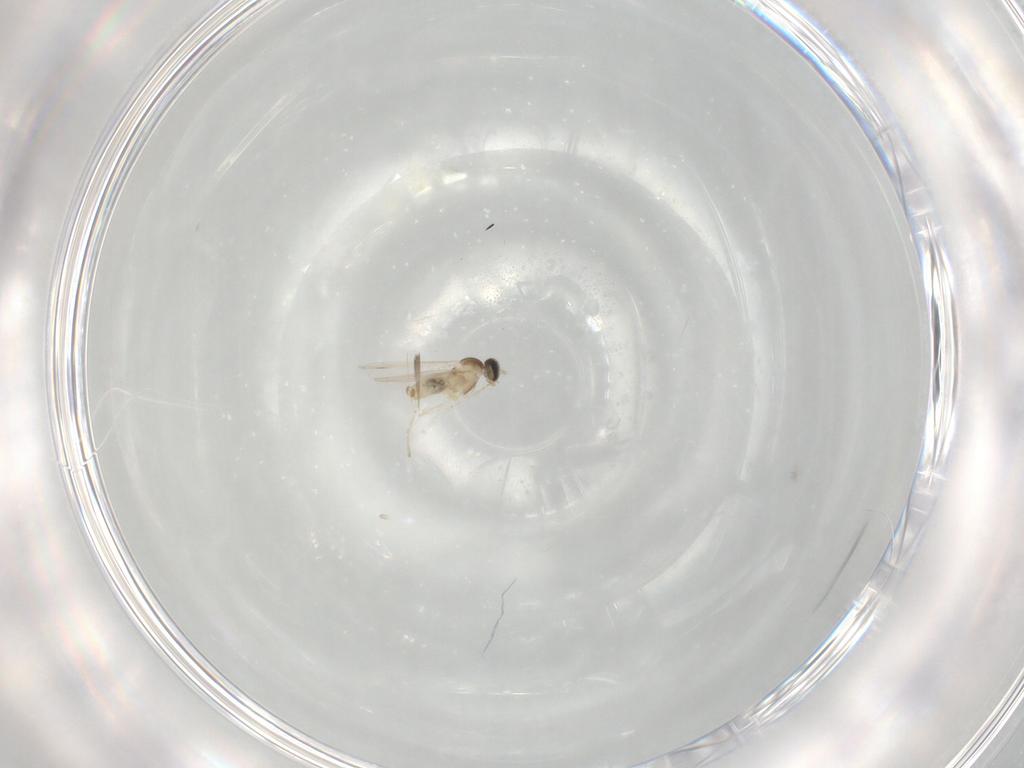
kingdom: Animalia
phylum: Arthropoda
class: Insecta
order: Diptera
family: Cecidomyiidae
